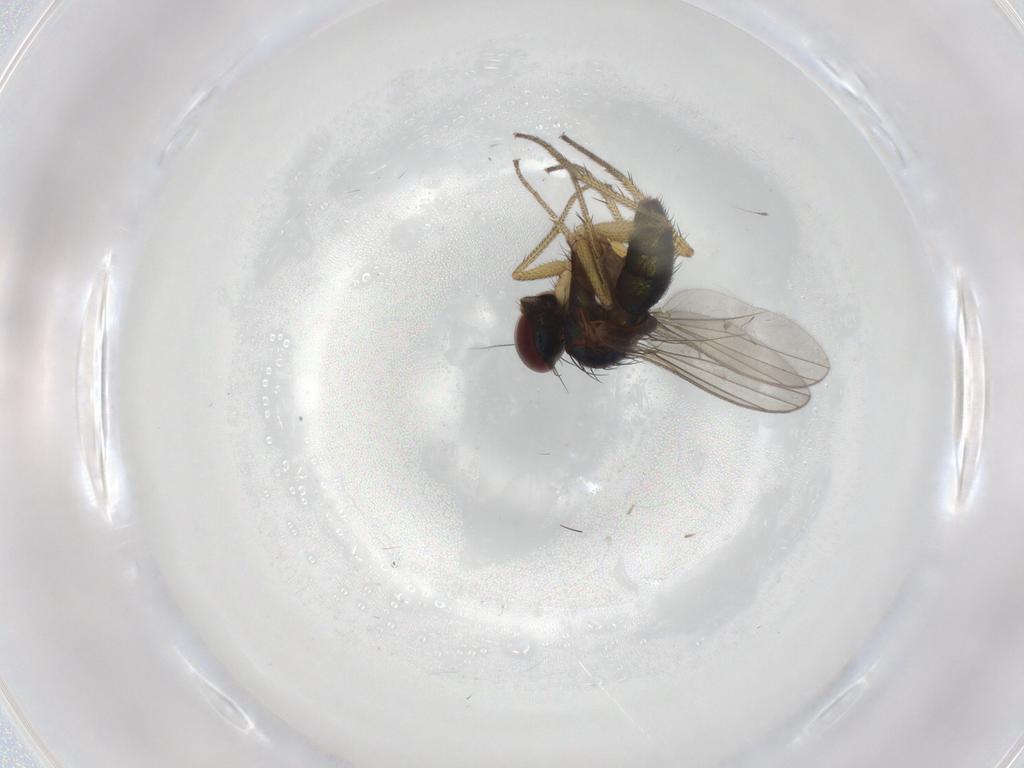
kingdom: Animalia
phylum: Arthropoda
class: Insecta
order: Diptera
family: Dolichopodidae
